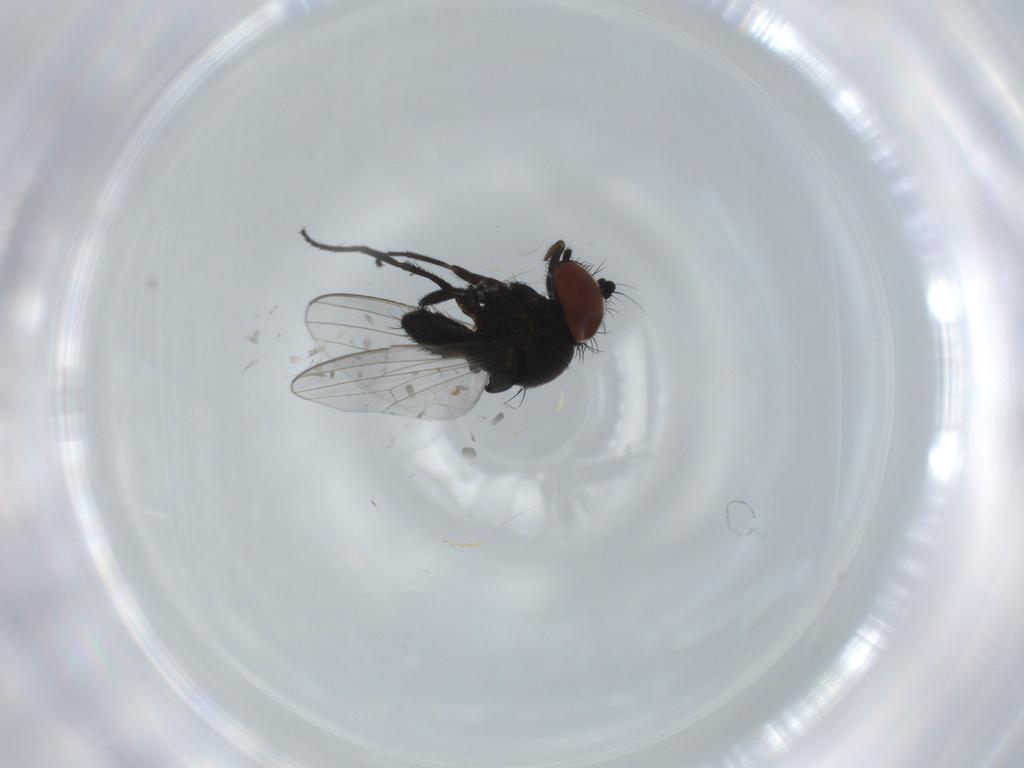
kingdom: Animalia
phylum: Arthropoda
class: Insecta
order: Diptera
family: Milichiidae
